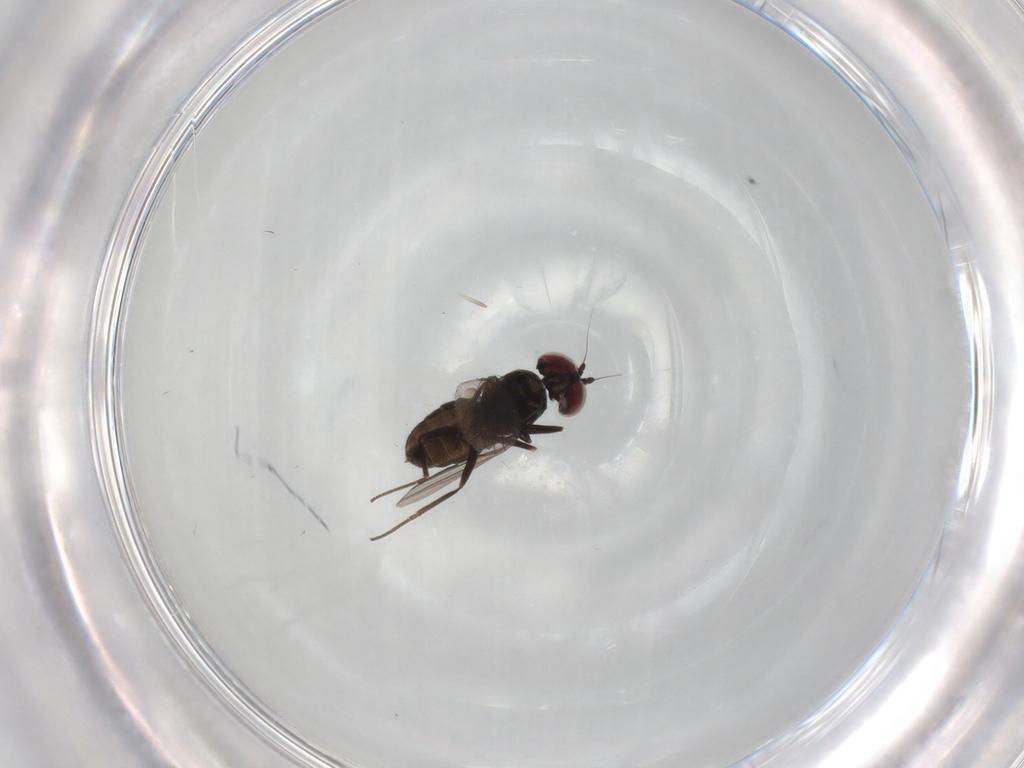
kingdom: Animalia
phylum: Arthropoda
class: Insecta
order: Diptera
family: Dolichopodidae
